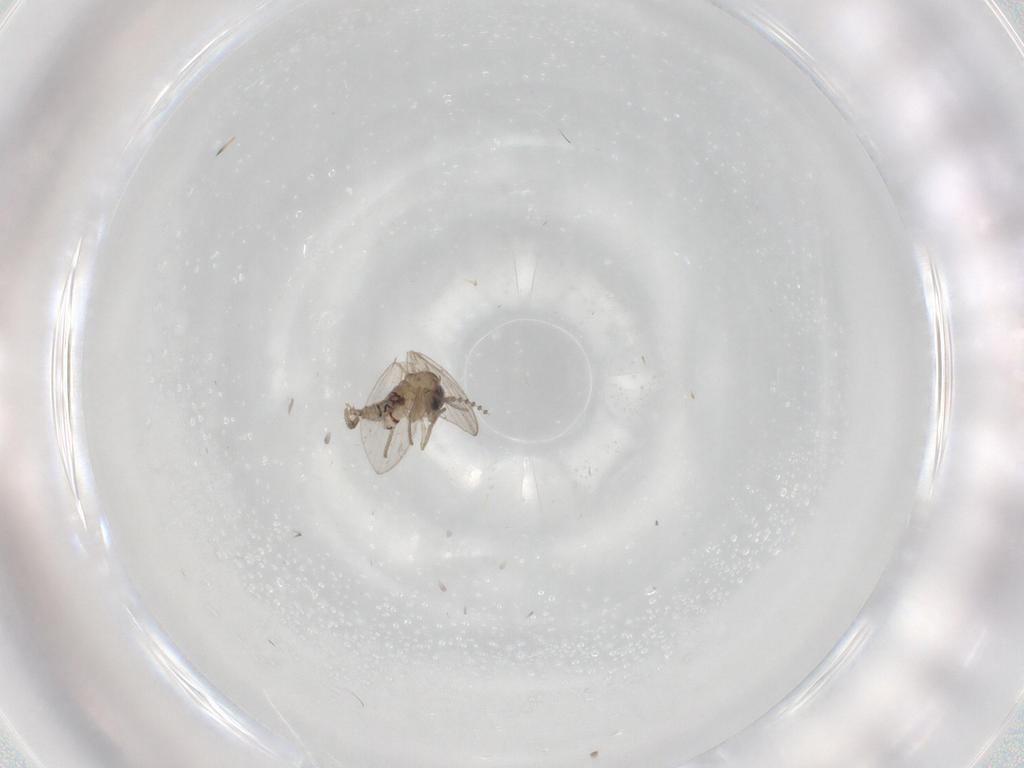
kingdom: Animalia
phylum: Arthropoda
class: Insecta
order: Diptera
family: Psychodidae
